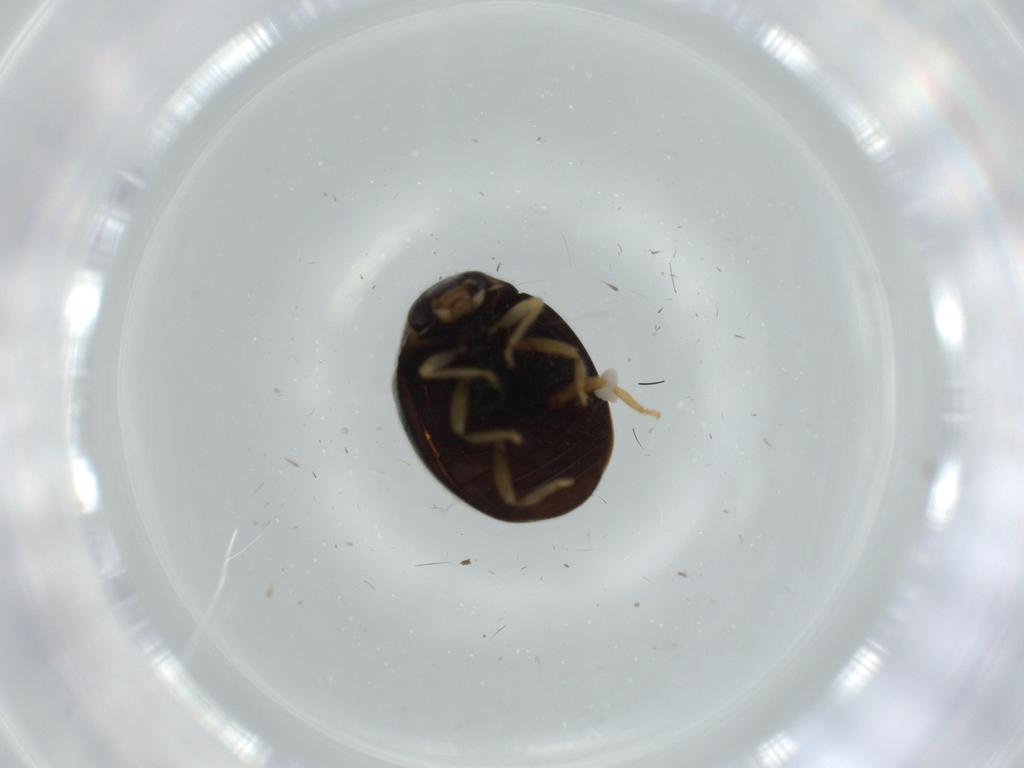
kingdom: Animalia
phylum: Arthropoda
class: Insecta
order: Coleoptera
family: Coccinellidae
